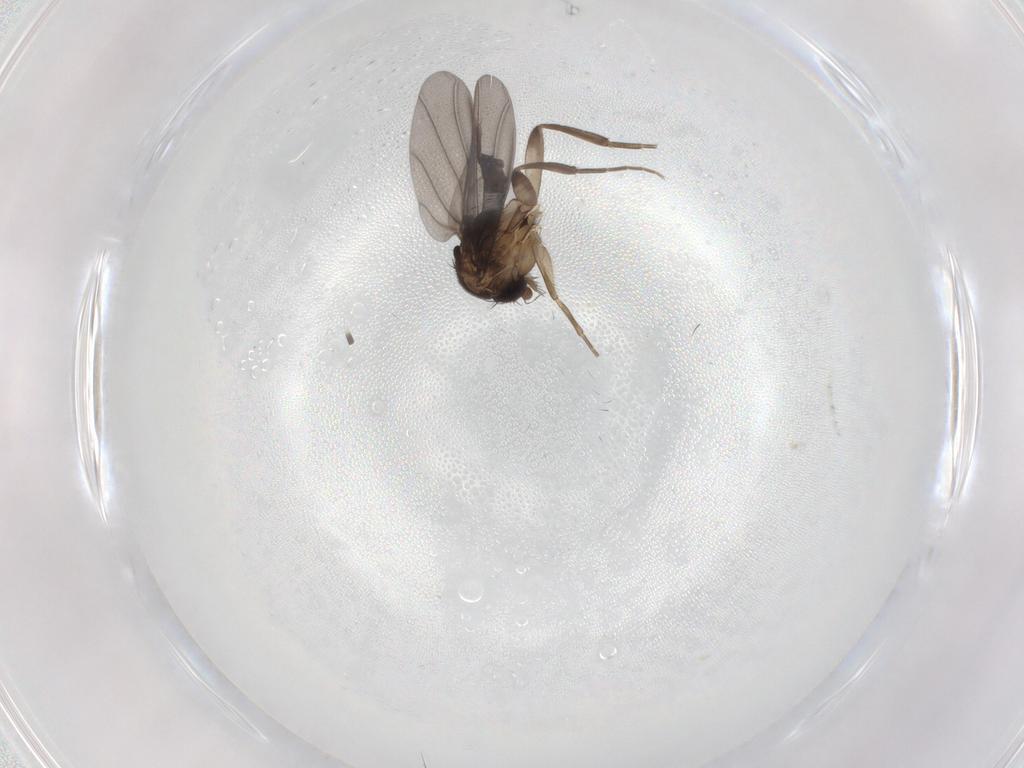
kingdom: Animalia
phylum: Arthropoda
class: Insecta
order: Diptera
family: Phoridae
